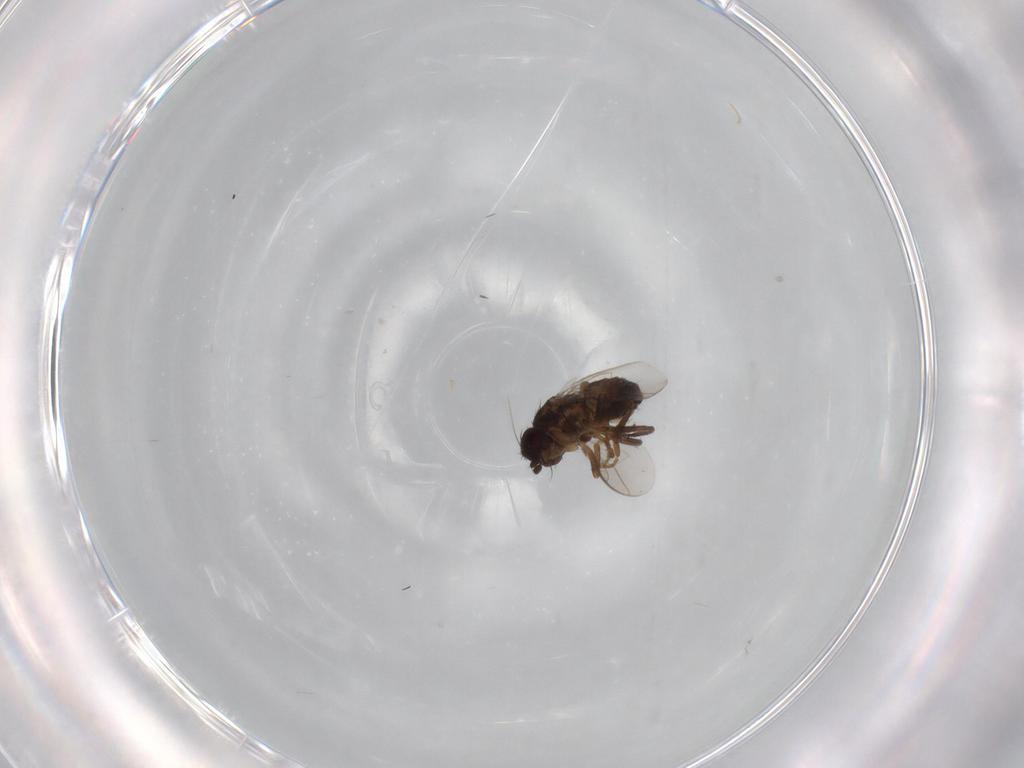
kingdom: Animalia
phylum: Arthropoda
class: Insecta
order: Diptera
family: Sphaeroceridae
